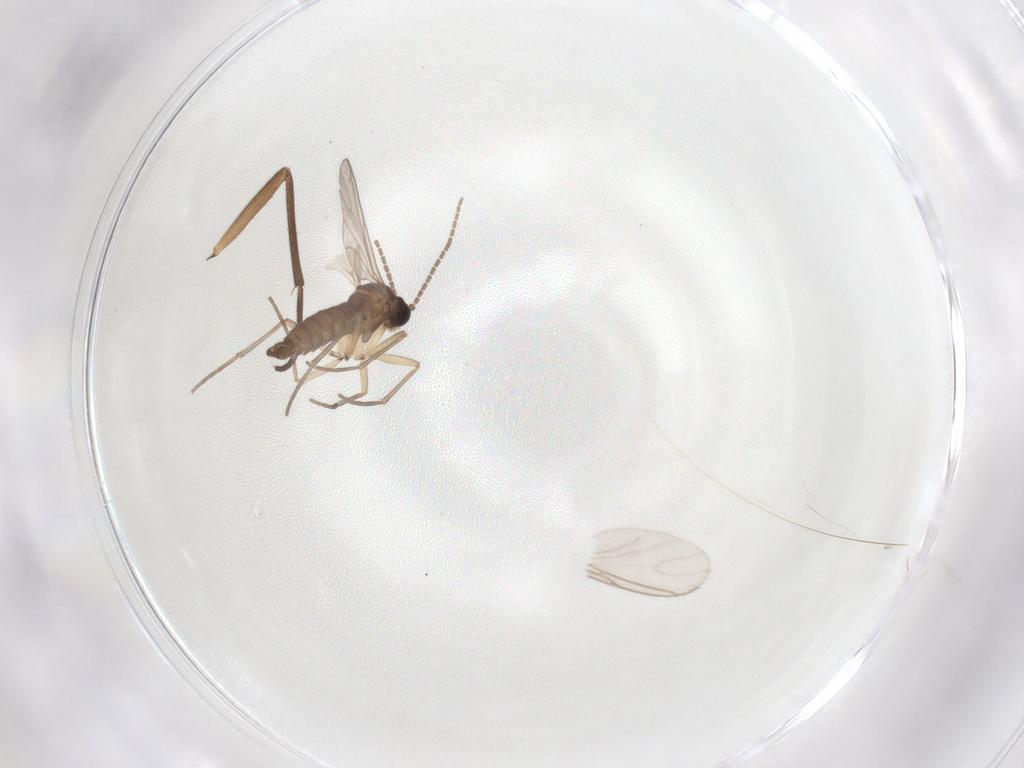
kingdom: Animalia
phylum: Arthropoda
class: Insecta
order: Diptera
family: Sciaridae
